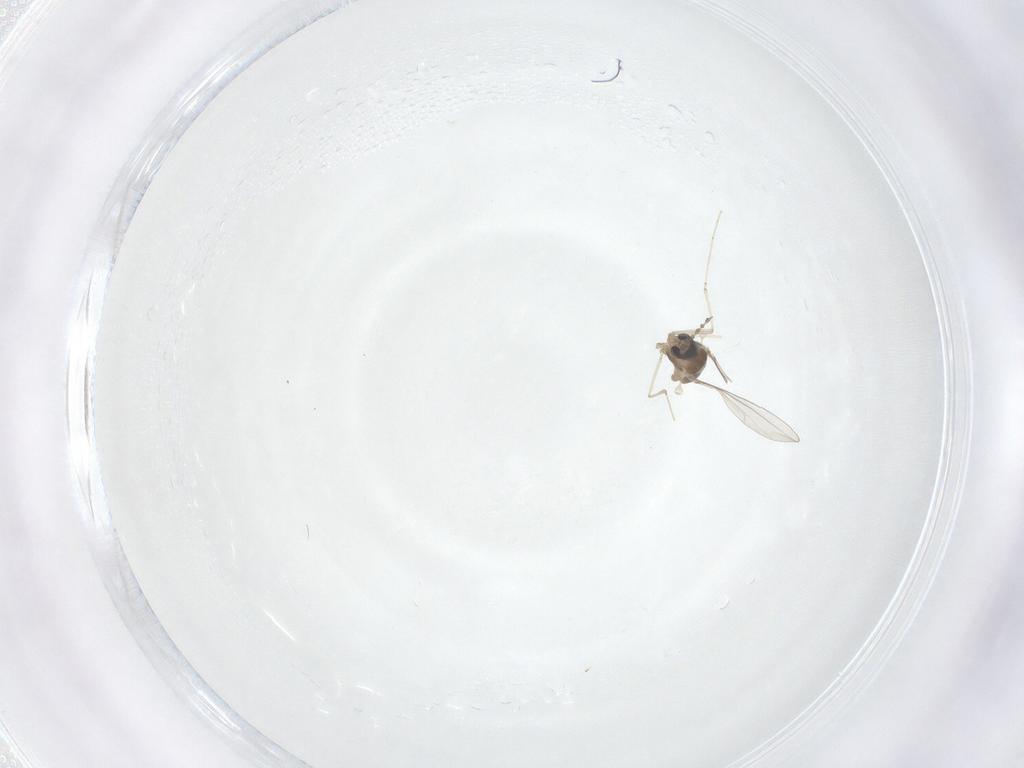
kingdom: Animalia
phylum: Arthropoda
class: Insecta
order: Diptera
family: Cecidomyiidae
